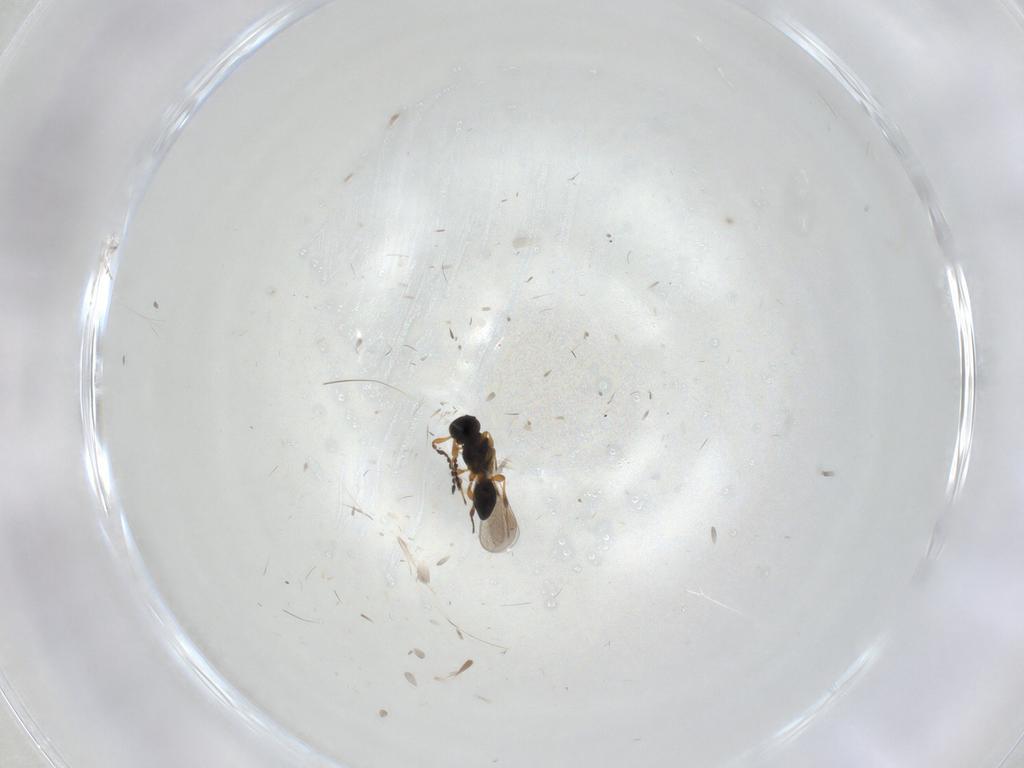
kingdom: Animalia
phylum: Arthropoda
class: Insecta
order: Hymenoptera
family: Platygastridae
